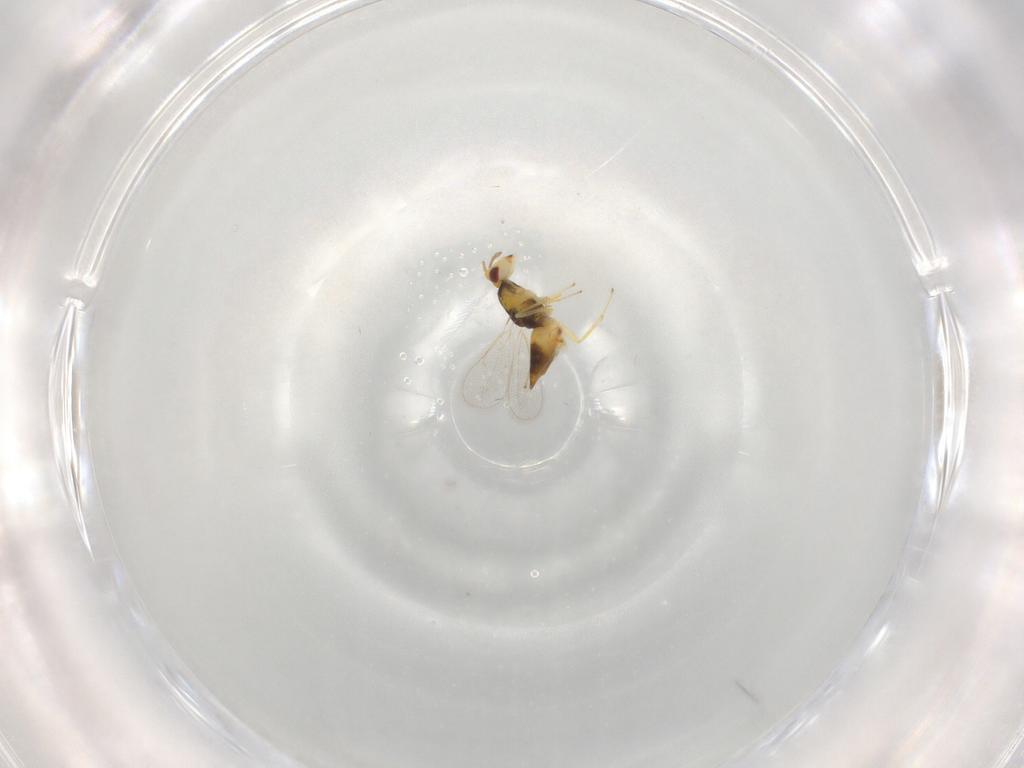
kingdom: Animalia
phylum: Arthropoda
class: Insecta
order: Hymenoptera
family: Eulophidae
